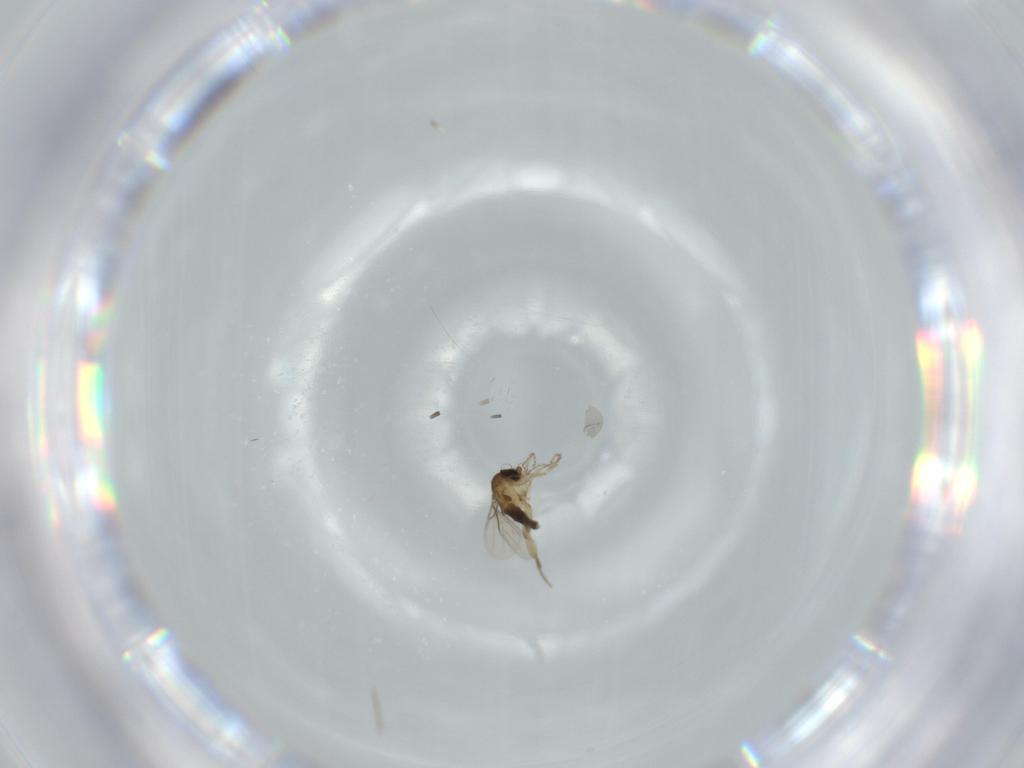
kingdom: Animalia
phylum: Arthropoda
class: Insecta
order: Diptera
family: Phoridae
